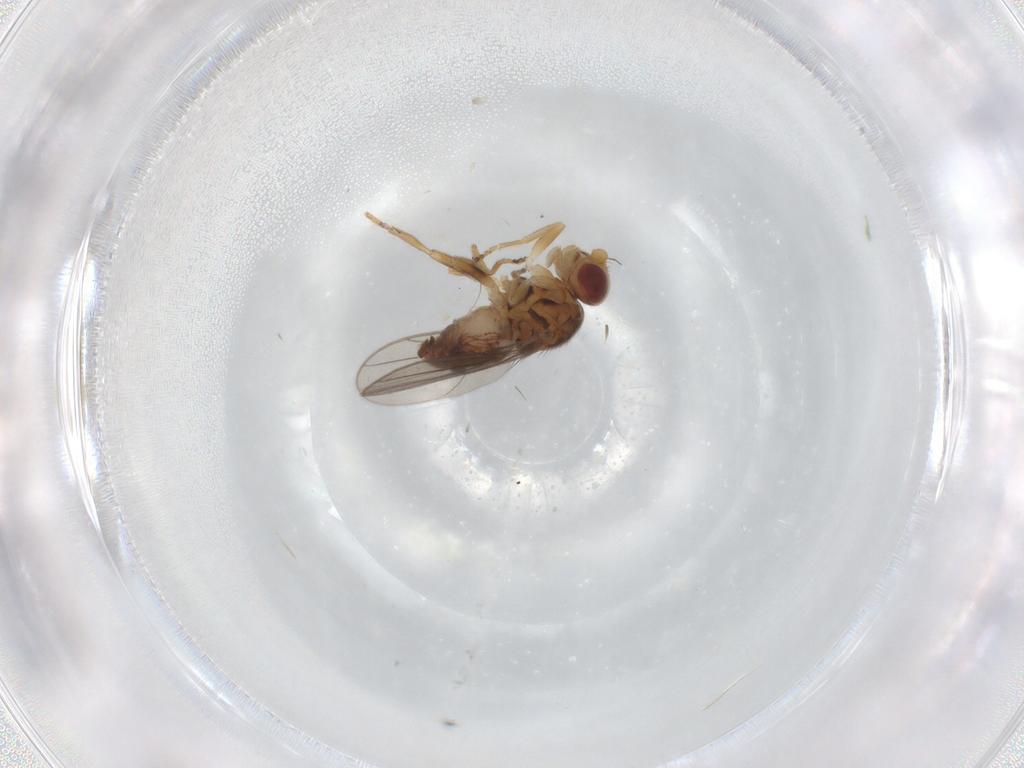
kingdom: Animalia
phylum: Arthropoda
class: Insecta
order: Diptera
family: Chloropidae
